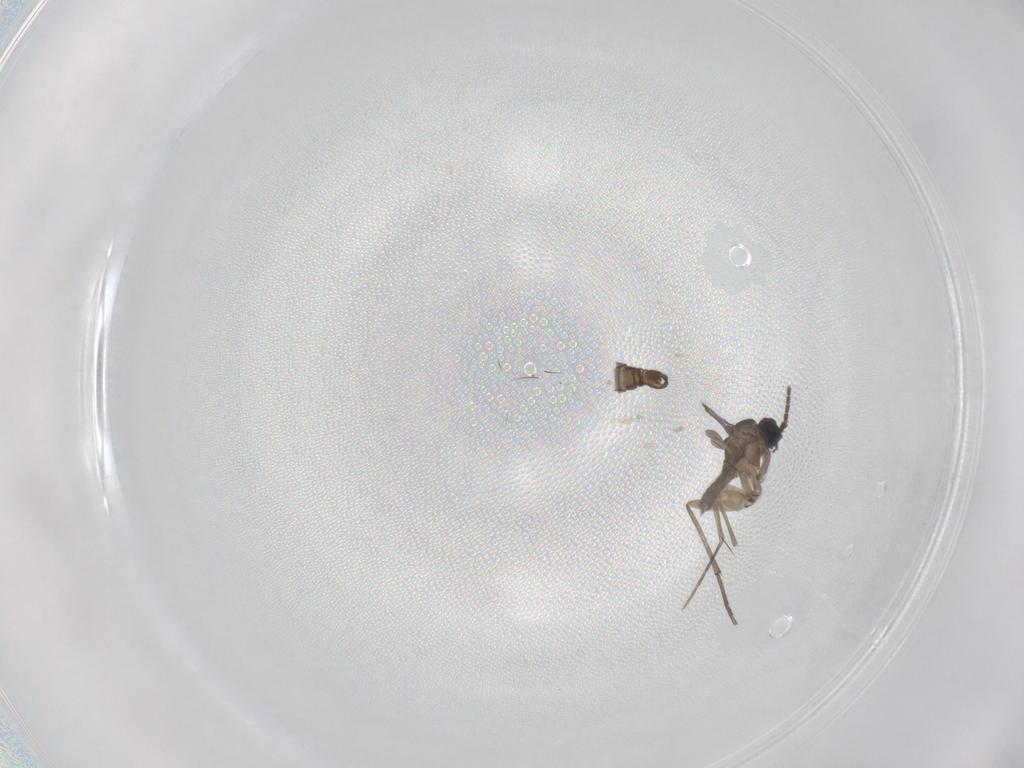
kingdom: Animalia
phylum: Arthropoda
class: Insecta
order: Diptera
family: Sciaridae
